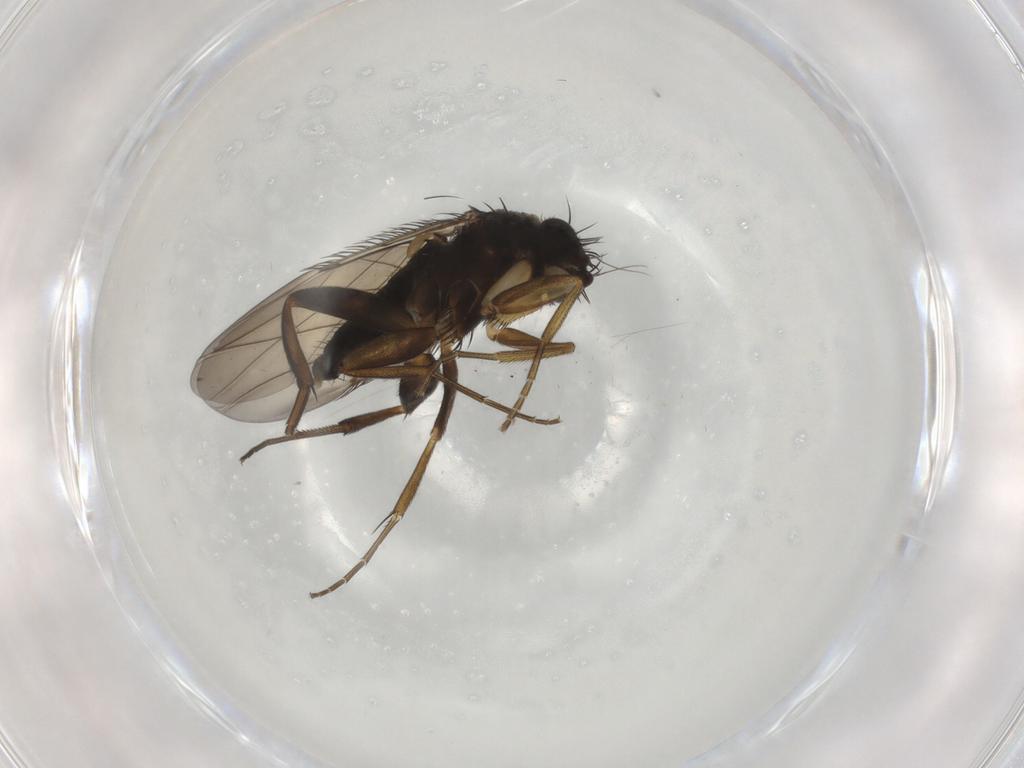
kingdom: Animalia
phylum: Arthropoda
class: Insecta
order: Diptera
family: Phoridae
